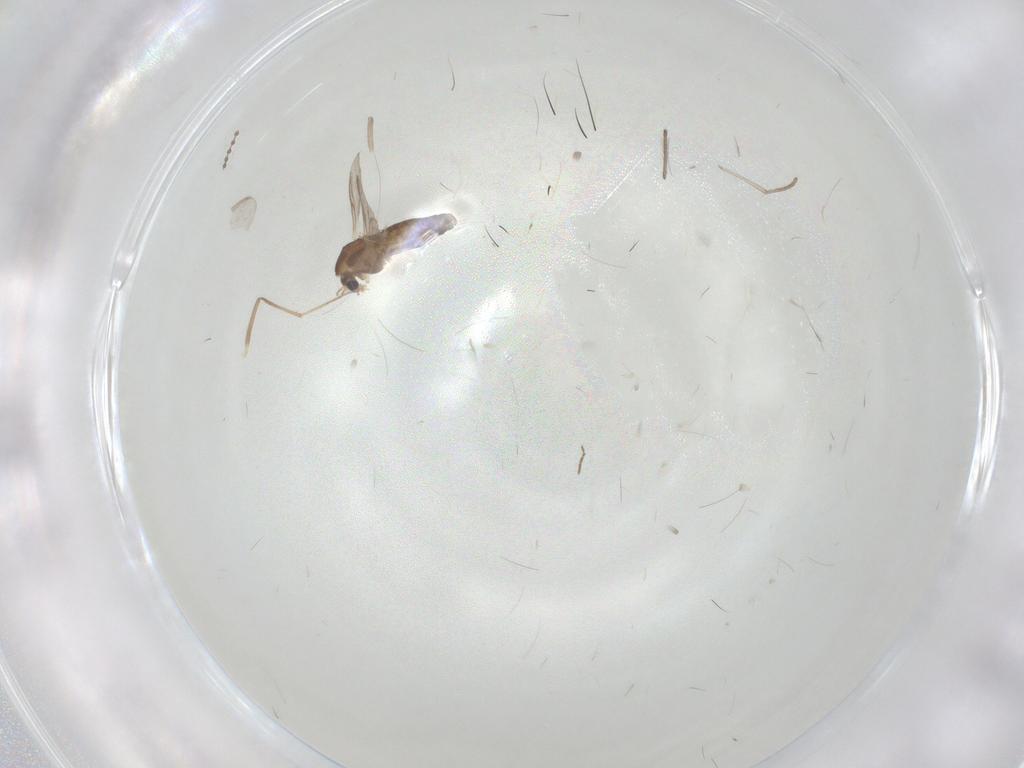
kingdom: Animalia
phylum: Arthropoda
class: Insecta
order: Diptera
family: Chironomidae
